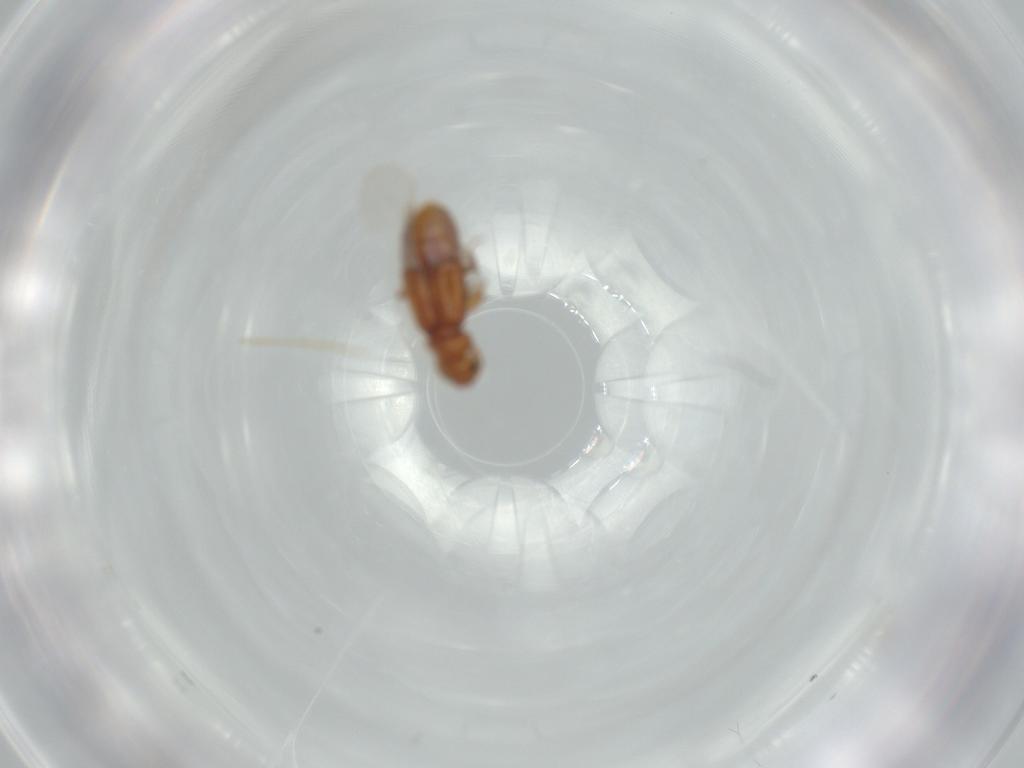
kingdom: Animalia
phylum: Arthropoda
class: Insecta
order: Coleoptera
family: Staphylinidae
